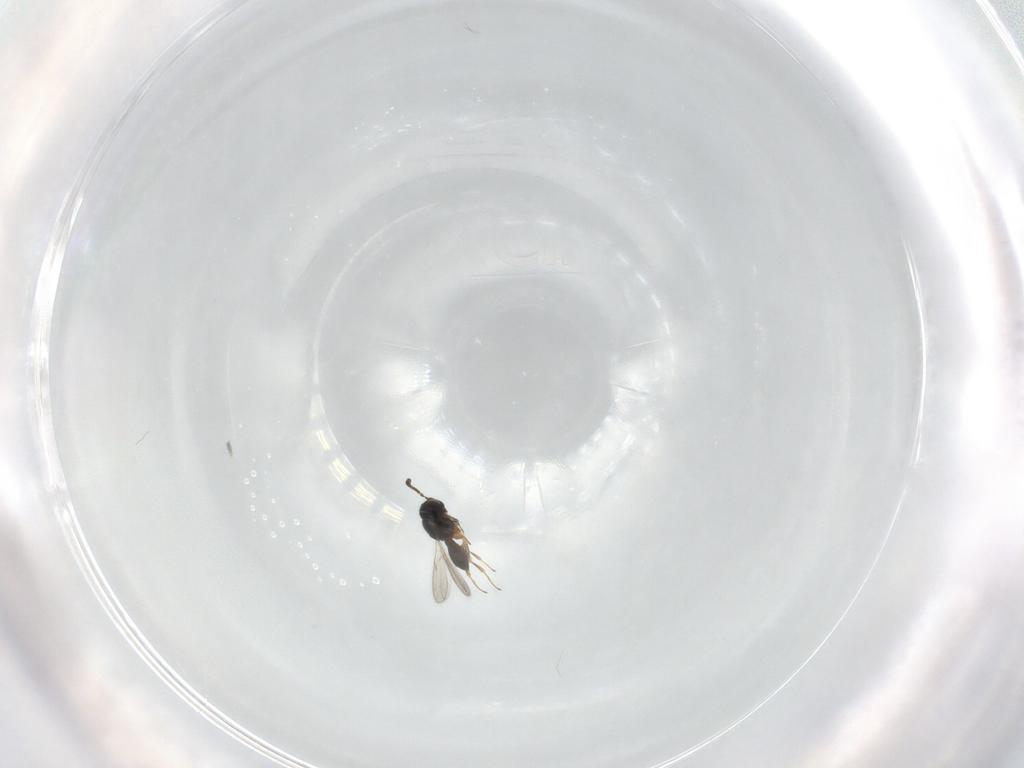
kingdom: Animalia
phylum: Arthropoda
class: Insecta
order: Hymenoptera
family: Scelionidae
